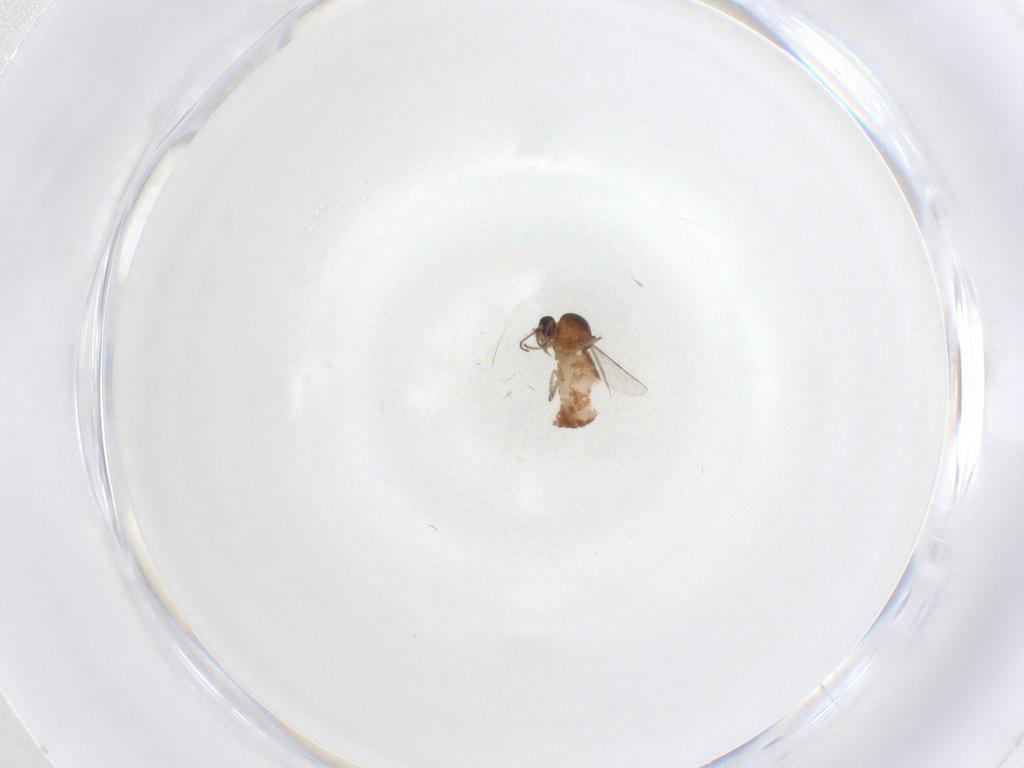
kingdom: Animalia
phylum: Arthropoda
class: Insecta
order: Diptera
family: Ceratopogonidae
